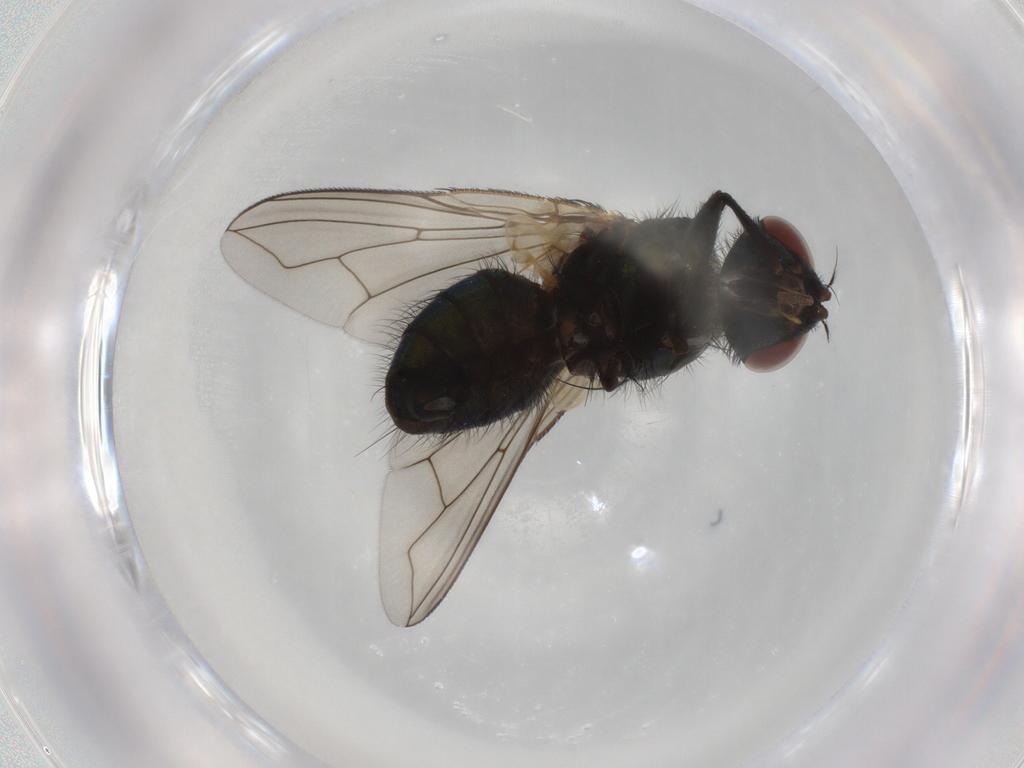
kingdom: Animalia
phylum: Arthropoda
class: Insecta
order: Diptera
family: Calliphoridae
